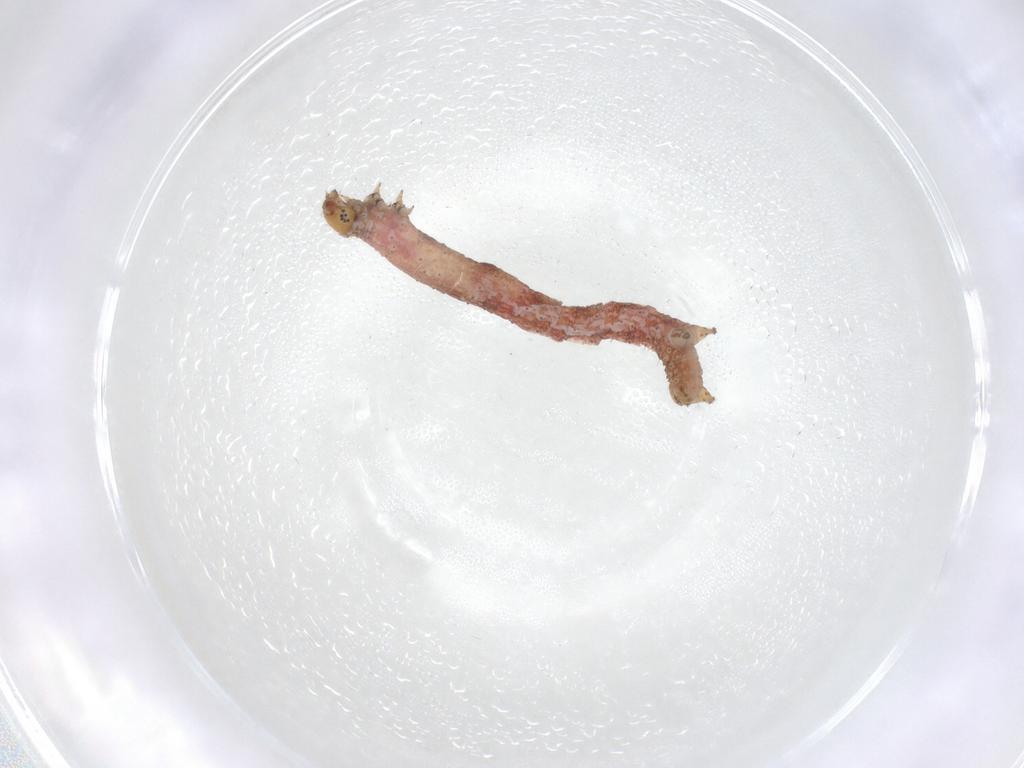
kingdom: Animalia
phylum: Arthropoda
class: Insecta
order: Lepidoptera
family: Geometridae
